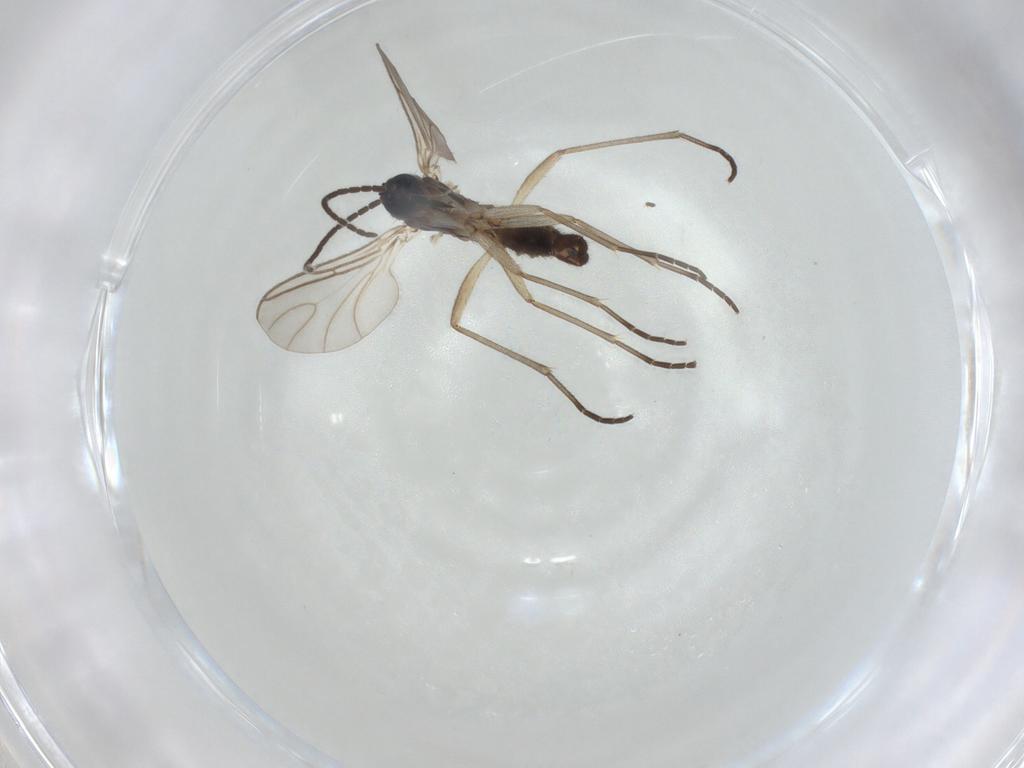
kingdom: Animalia
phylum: Arthropoda
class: Insecta
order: Diptera
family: Sciaridae
